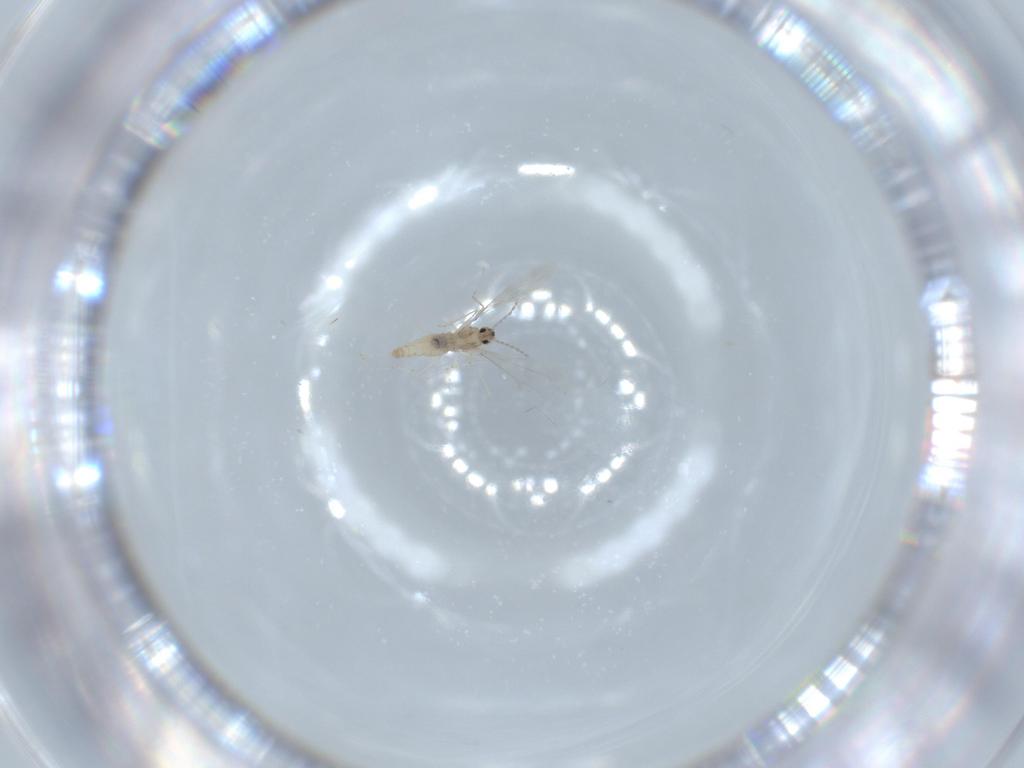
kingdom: Animalia
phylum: Arthropoda
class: Insecta
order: Diptera
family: Cecidomyiidae
